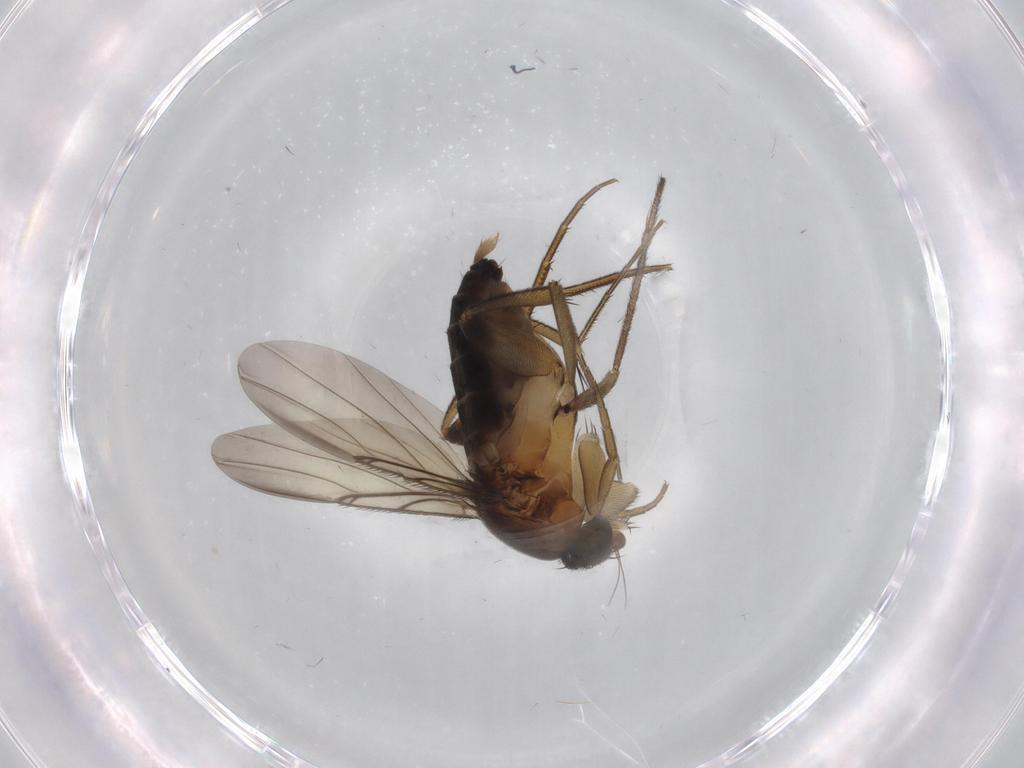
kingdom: Animalia
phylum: Arthropoda
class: Insecta
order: Diptera
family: Phoridae
